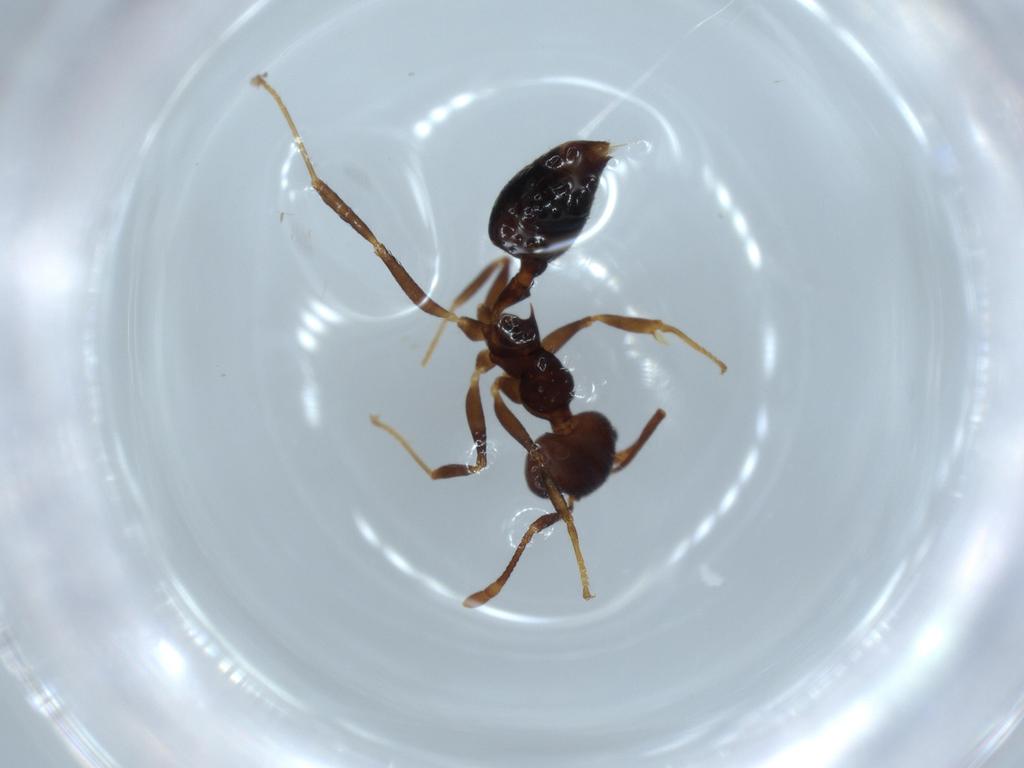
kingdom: Animalia
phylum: Arthropoda
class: Insecta
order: Hymenoptera
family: Formicidae
